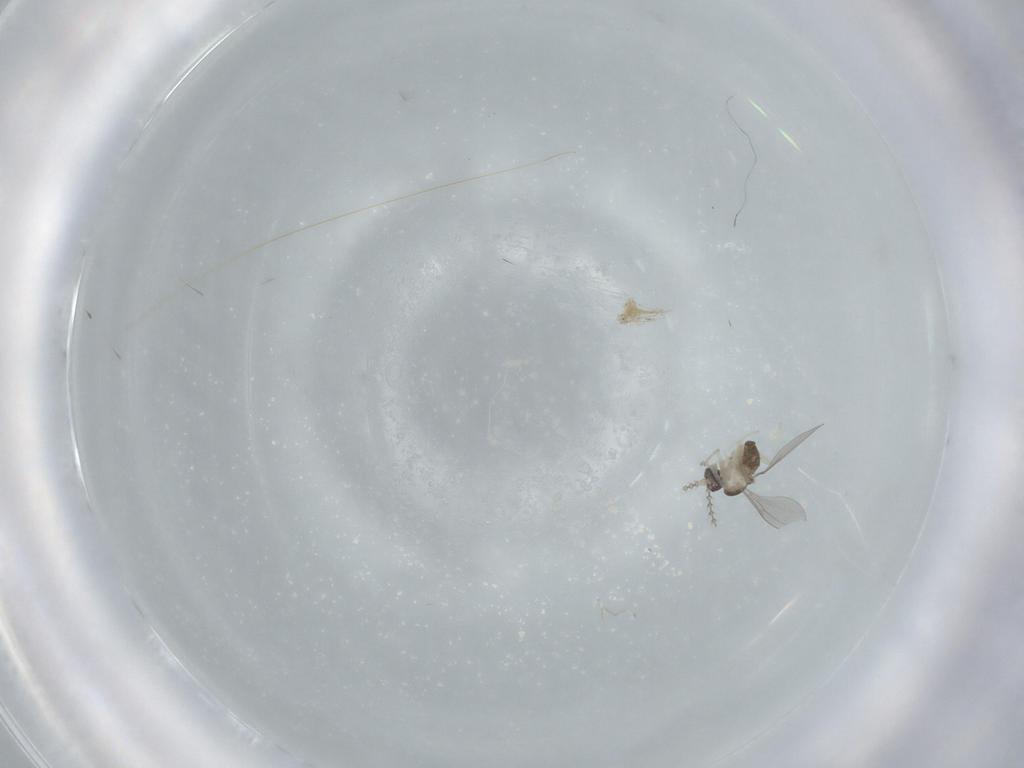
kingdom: Animalia
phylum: Arthropoda
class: Insecta
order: Diptera
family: Cecidomyiidae
